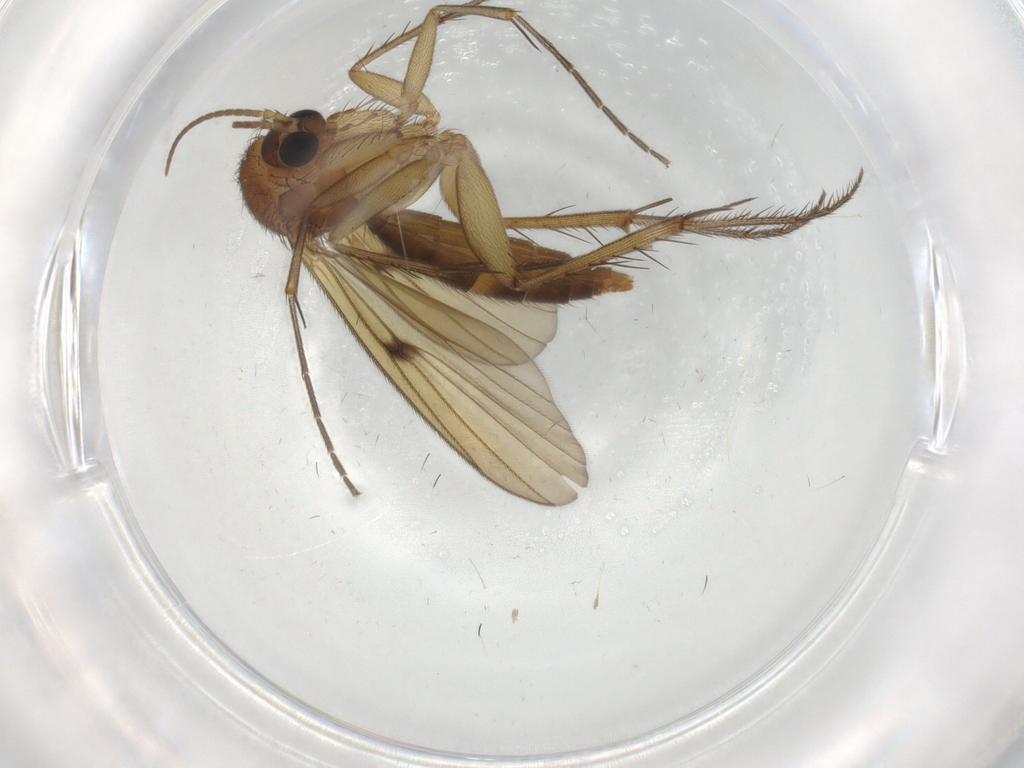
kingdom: Animalia
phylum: Arthropoda
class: Insecta
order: Diptera
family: Mycetophilidae
